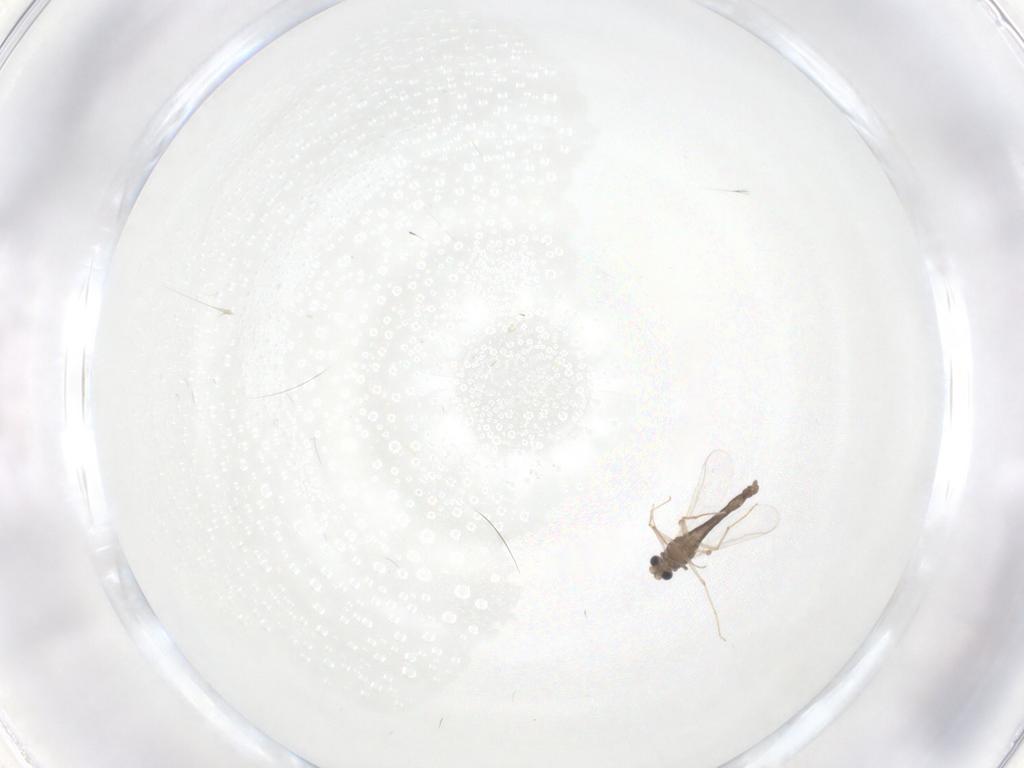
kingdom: Animalia
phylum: Arthropoda
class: Insecta
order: Diptera
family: Chironomidae
